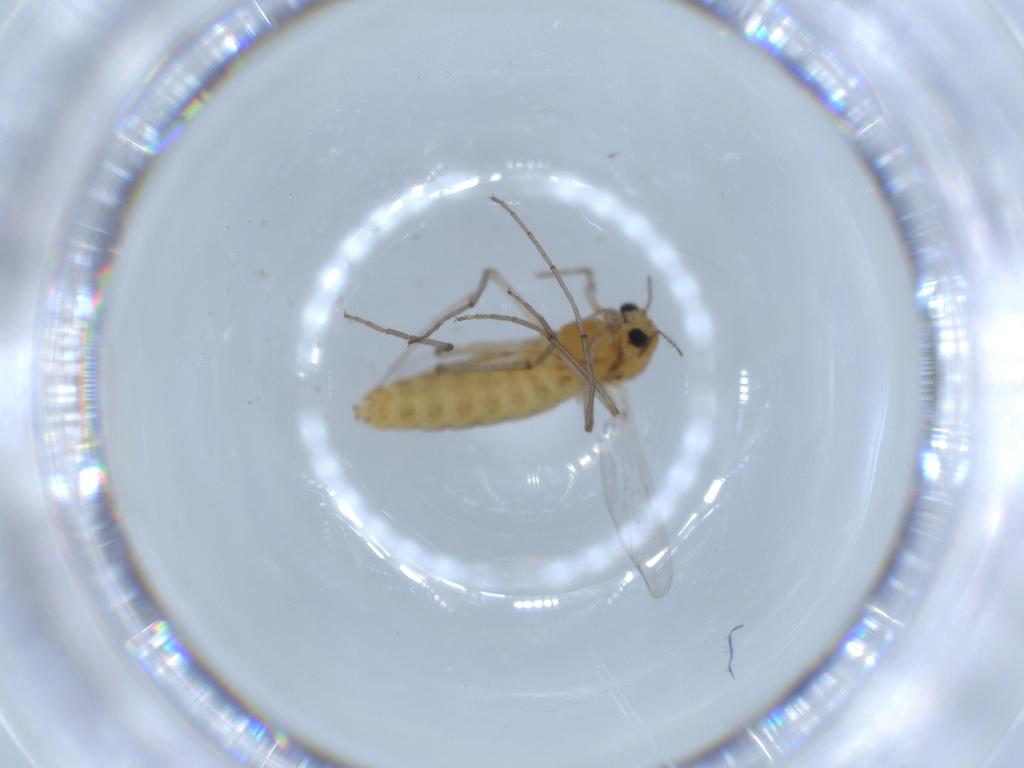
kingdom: Animalia
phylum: Arthropoda
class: Insecta
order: Diptera
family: Chironomidae
